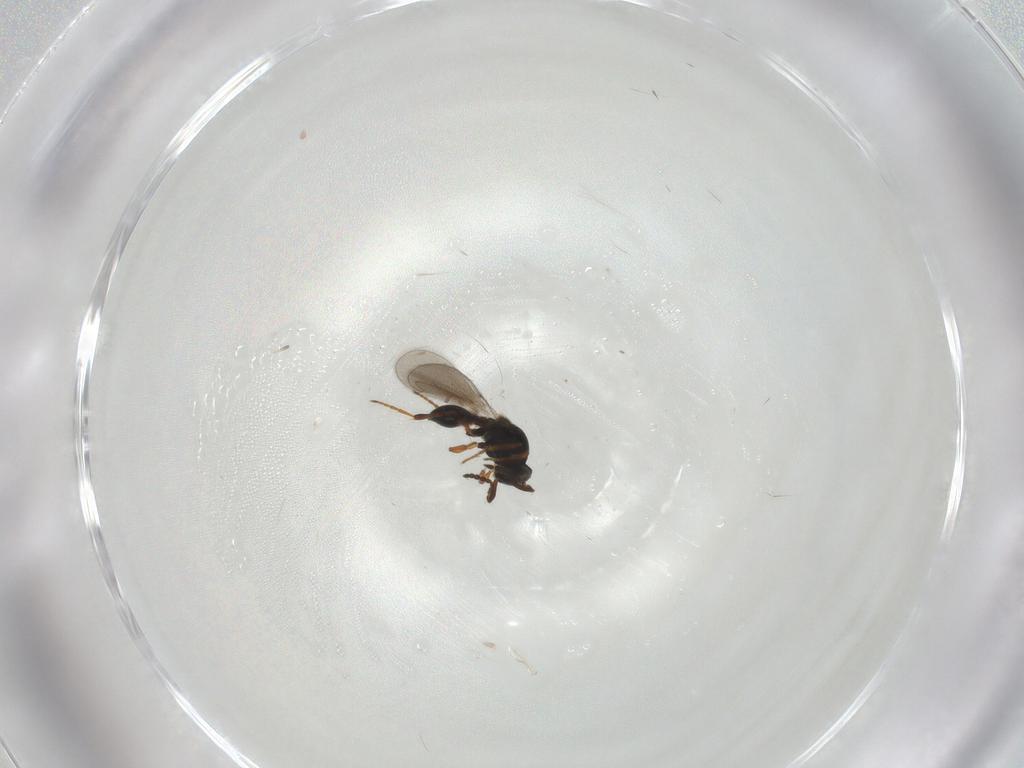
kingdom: Animalia
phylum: Arthropoda
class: Insecta
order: Hymenoptera
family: Platygastridae
